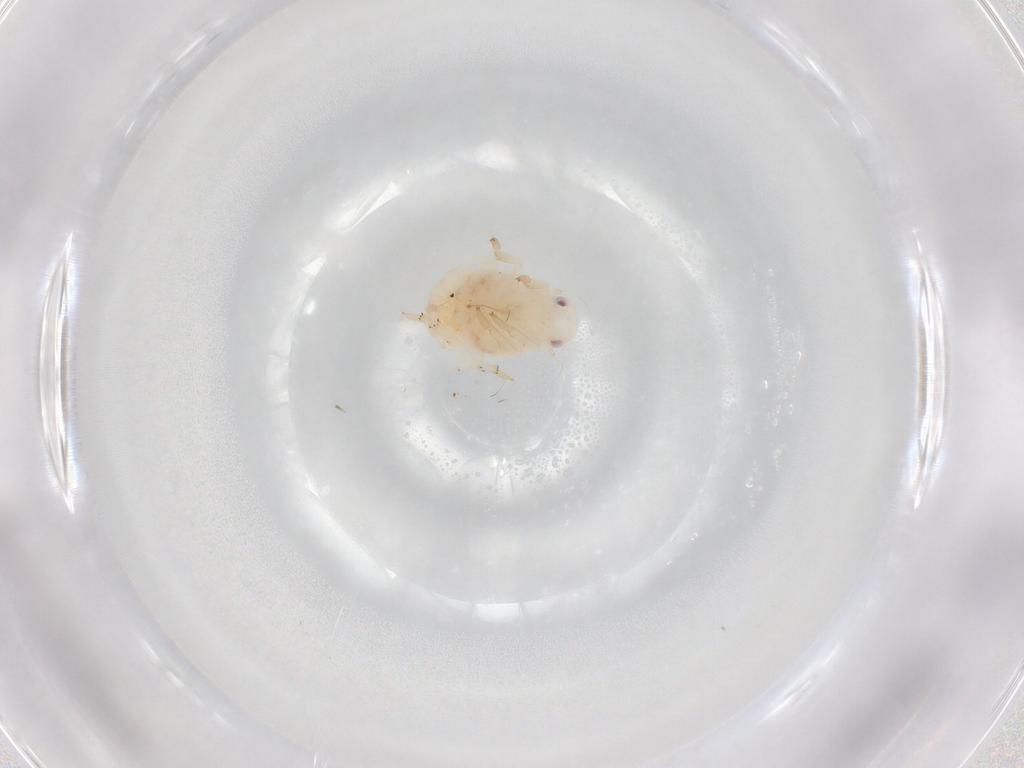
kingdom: Animalia
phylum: Arthropoda
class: Insecta
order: Hemiptera
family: Flatidae
